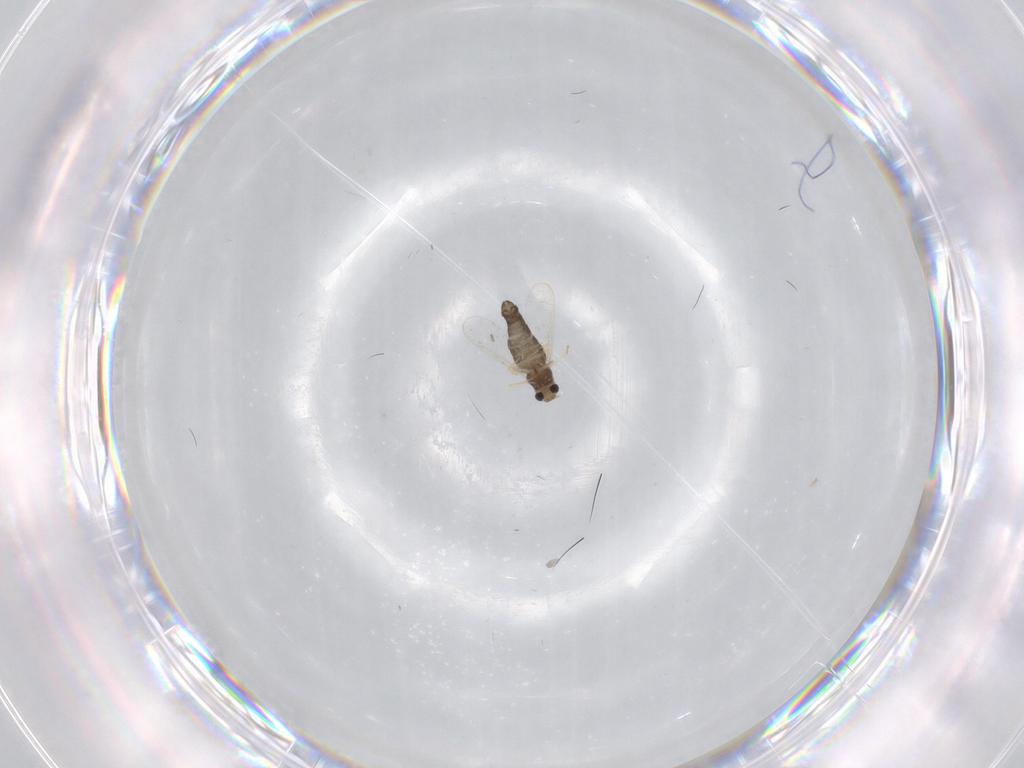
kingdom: Animalia
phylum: Arthropoda
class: Insecta
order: Diptera
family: Chironomidae
